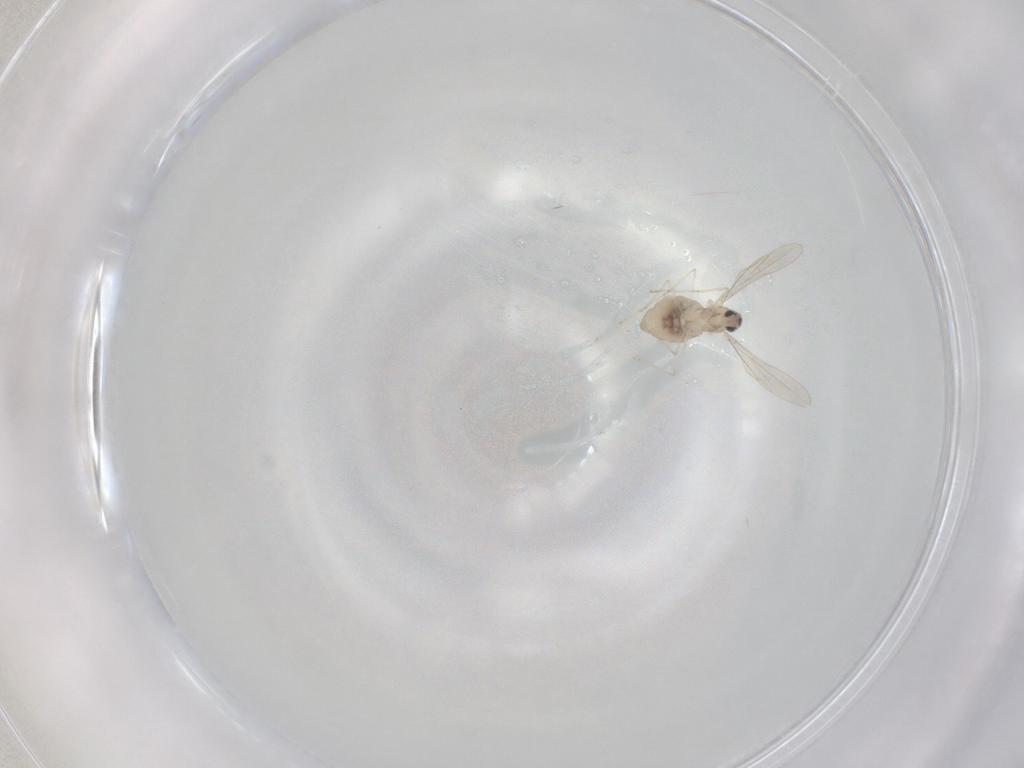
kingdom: Animalia
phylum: Arthropoda
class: Insecta
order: Diptera
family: Cecidomyiidae
